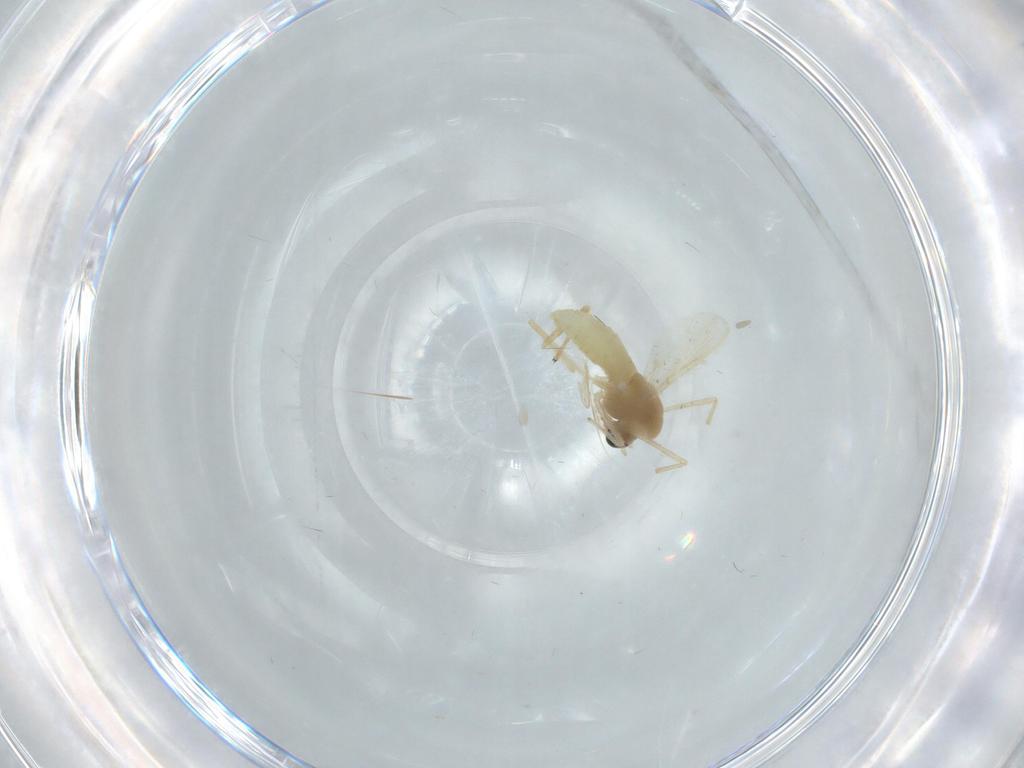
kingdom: Animalia
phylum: Arthropoda
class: Insecta
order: Diptera
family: Chironomidae
